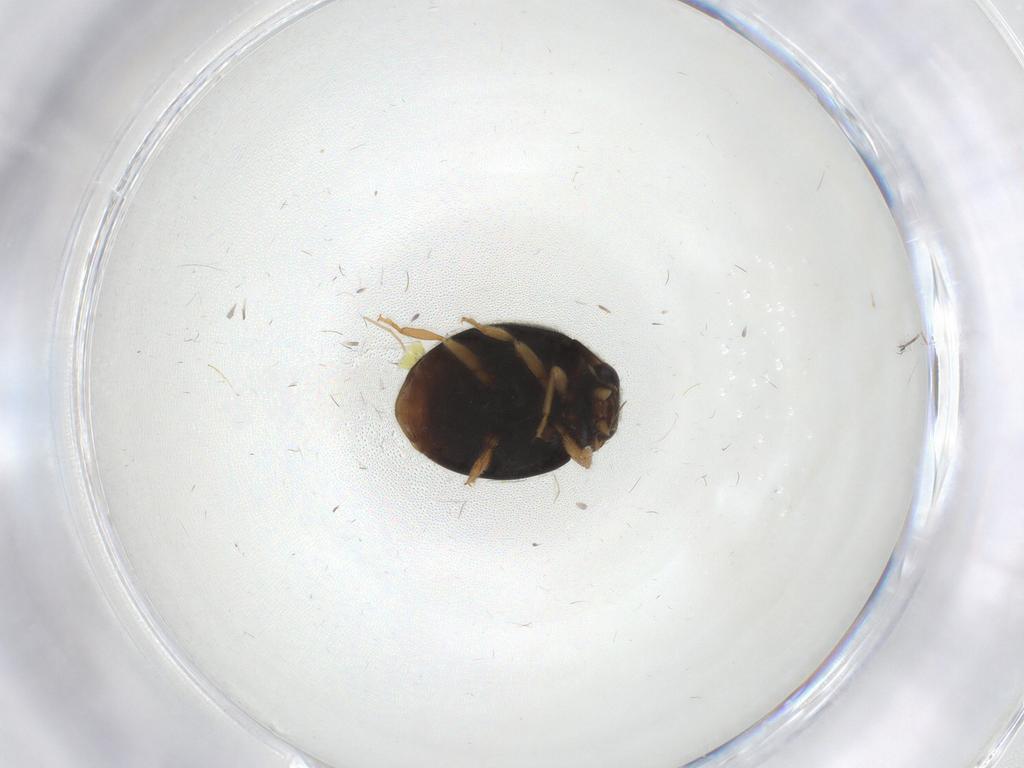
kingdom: Animalia
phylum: Arthropoda
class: Insecta
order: Coleoptera
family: Coccinellidae
